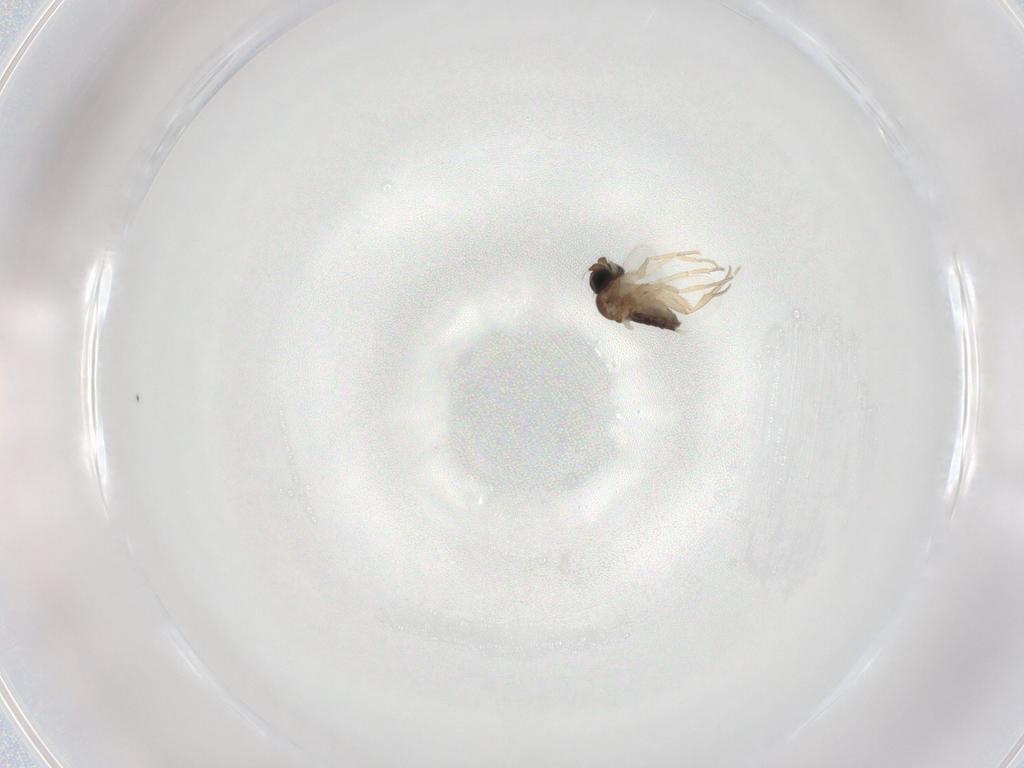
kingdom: Animalia
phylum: Arthropoda
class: Insecta
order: Diptera
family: Phoridae
